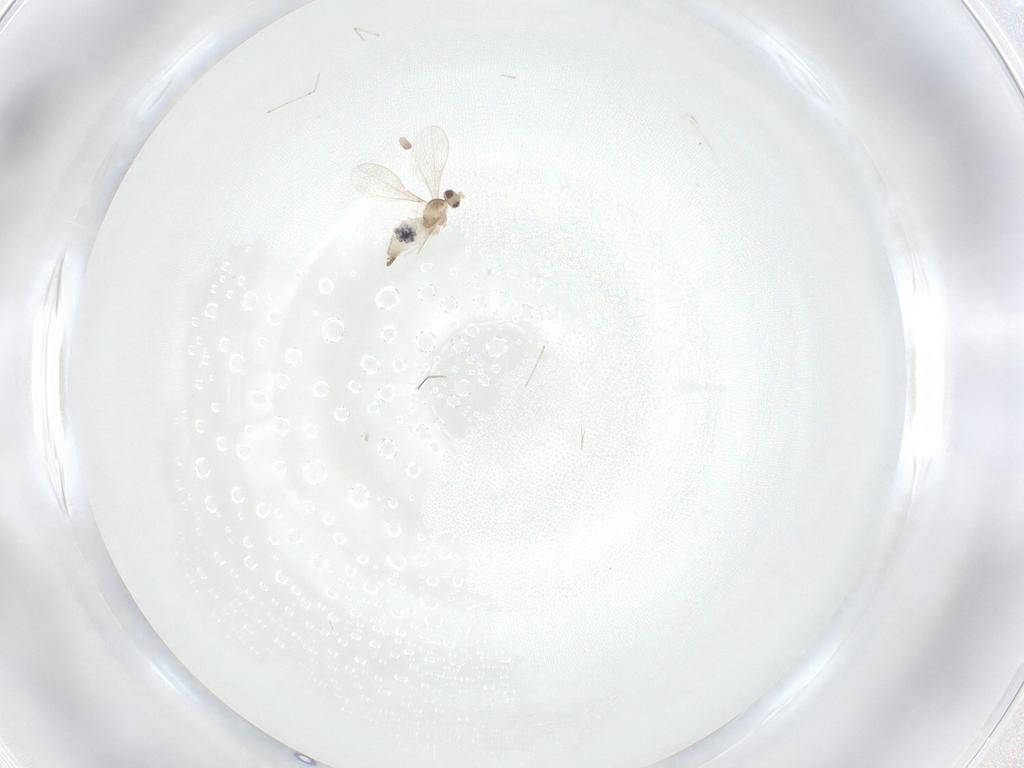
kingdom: Animalia
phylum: Arthropoda
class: Insecta
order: Diptera
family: Cecidomyiidae
